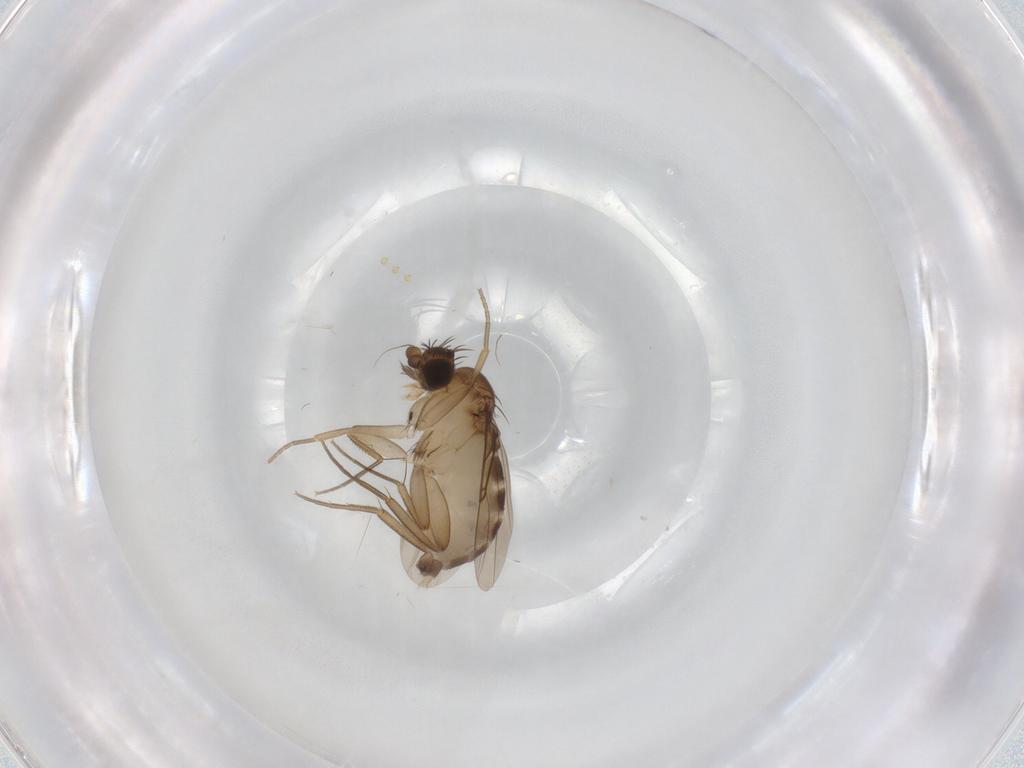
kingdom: Animalia
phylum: Arthropoda
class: Insecta
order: Diptera
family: Phoridae
